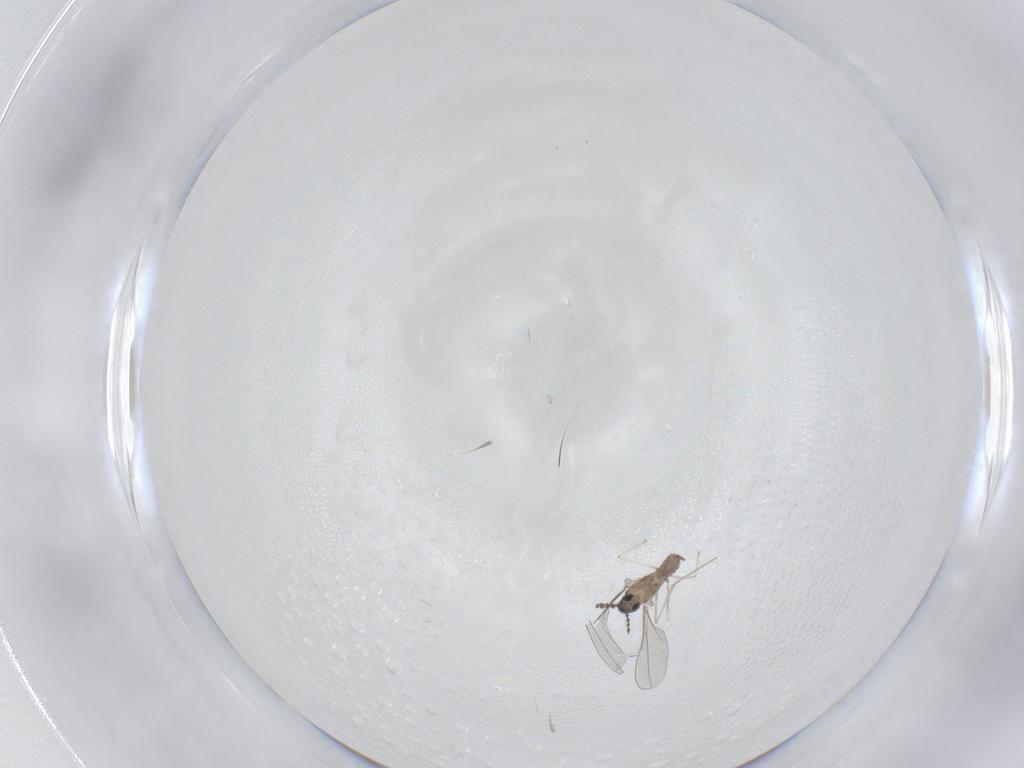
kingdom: Animalia
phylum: Arthropoda
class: Insecta
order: Diptera
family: Cecidomyiidae
